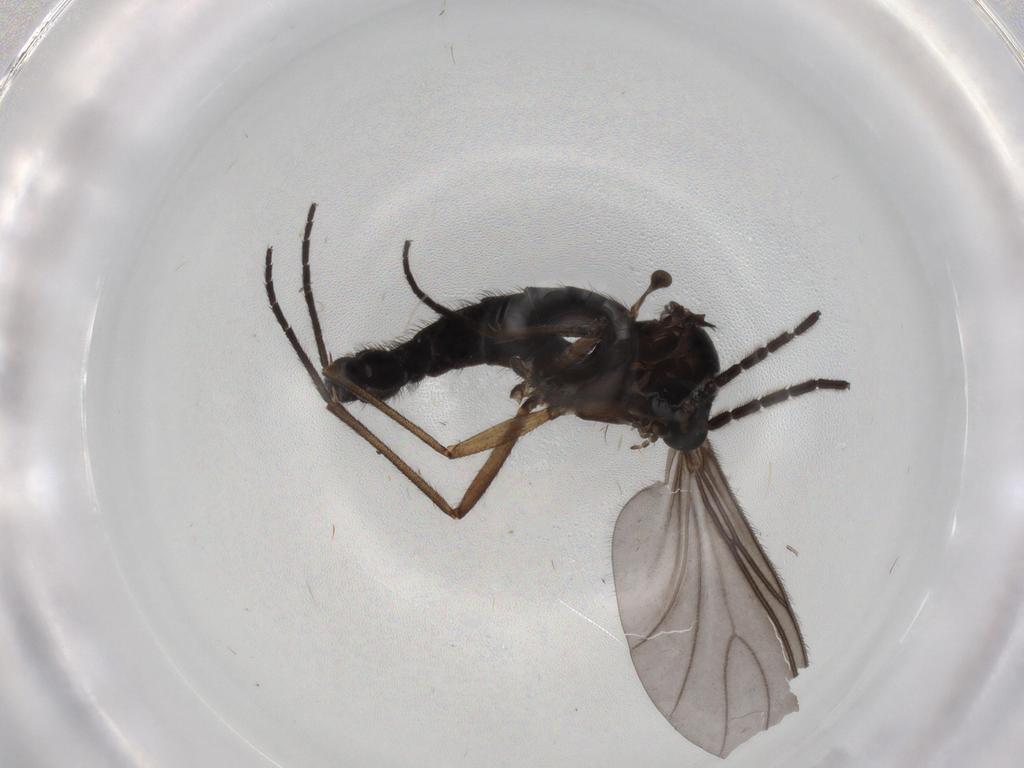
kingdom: Animalia
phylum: Arthropoda
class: Insecta
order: Diptera
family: Sciaridae
